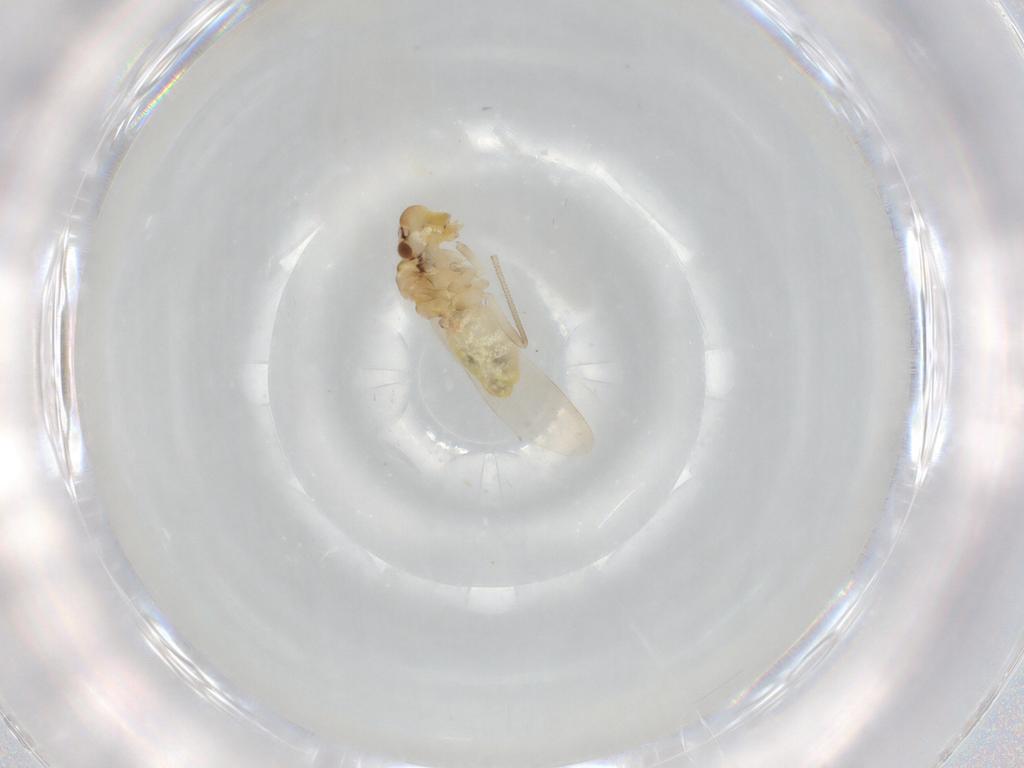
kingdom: Animalia
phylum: Arthropoda
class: Insecta
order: Psocodea
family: Caeciliusidae
